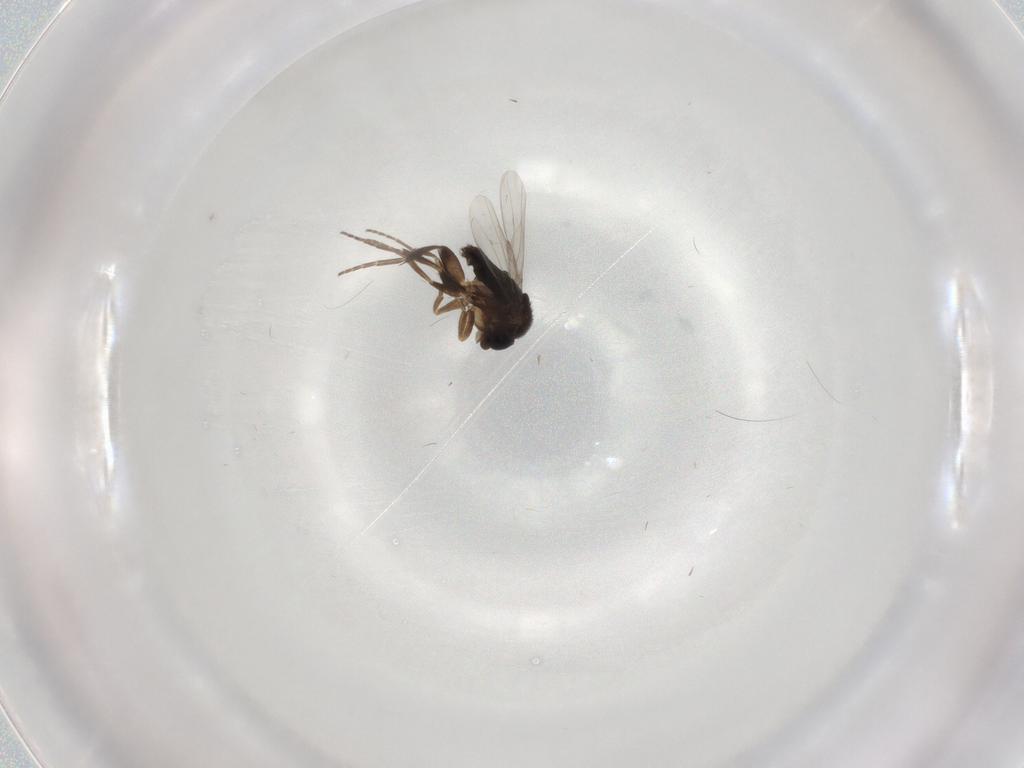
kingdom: Animalia
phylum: Arthropoda
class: Insecta
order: Diptera
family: Phoridae
